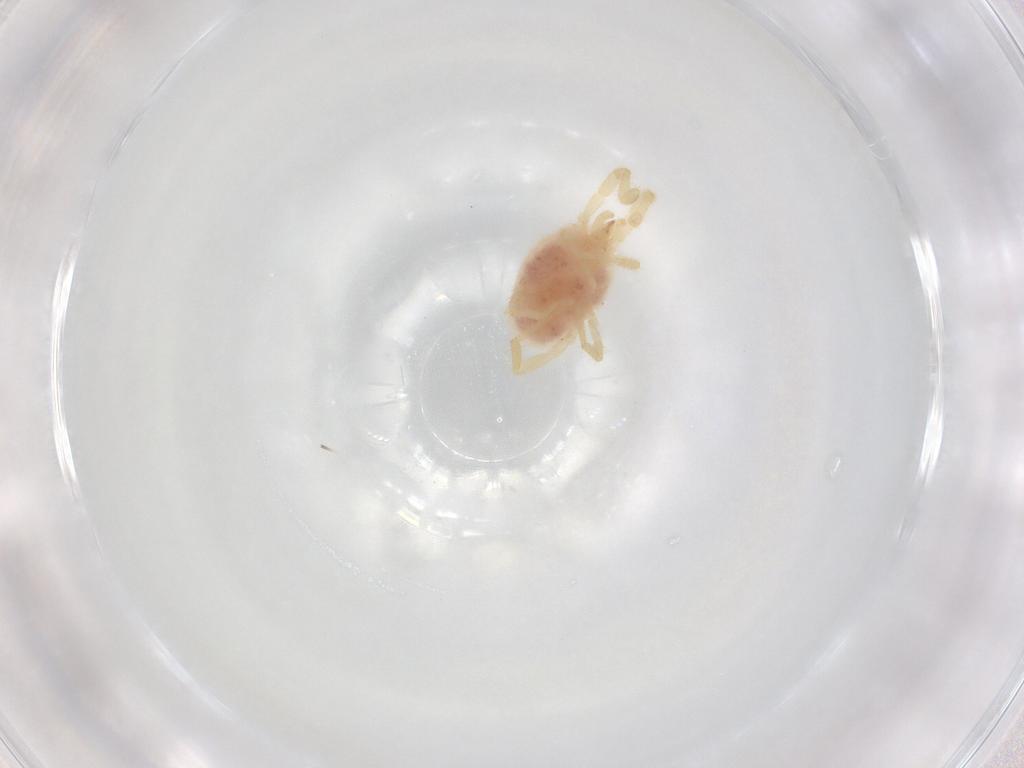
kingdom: Animalia
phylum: Arthropoda
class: Arachnida
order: Trombidiformes
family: Erythraeidae
